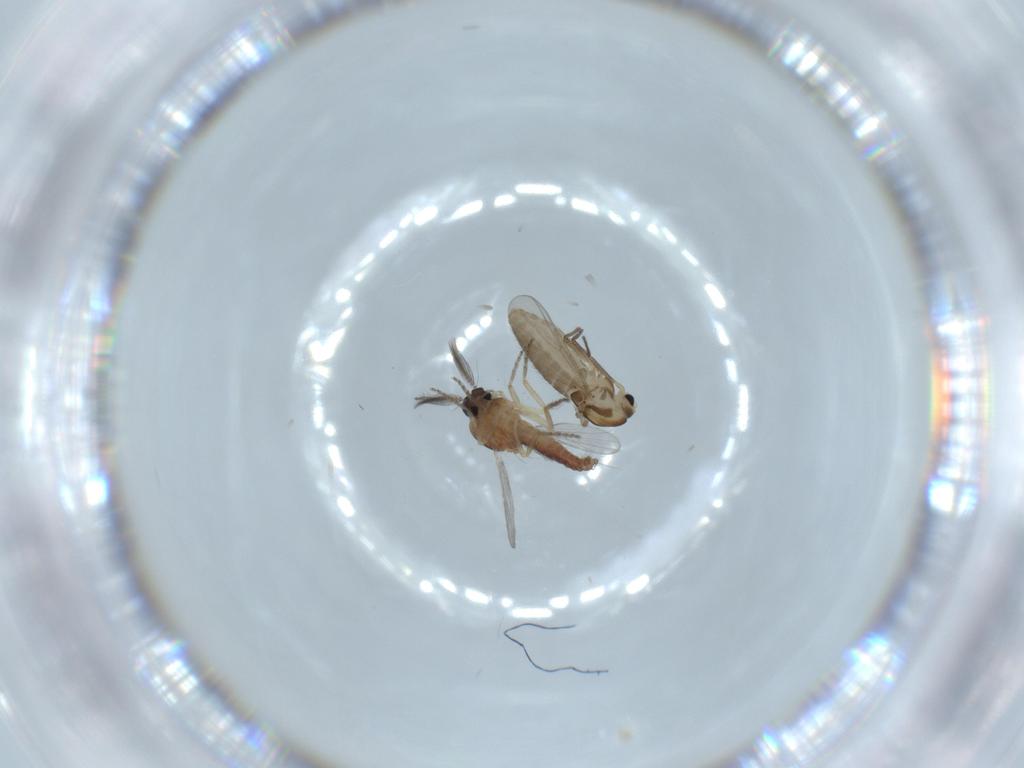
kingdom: Animalia
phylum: Arthropoda
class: Insecta
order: Diptera
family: Ceratopogonidae
